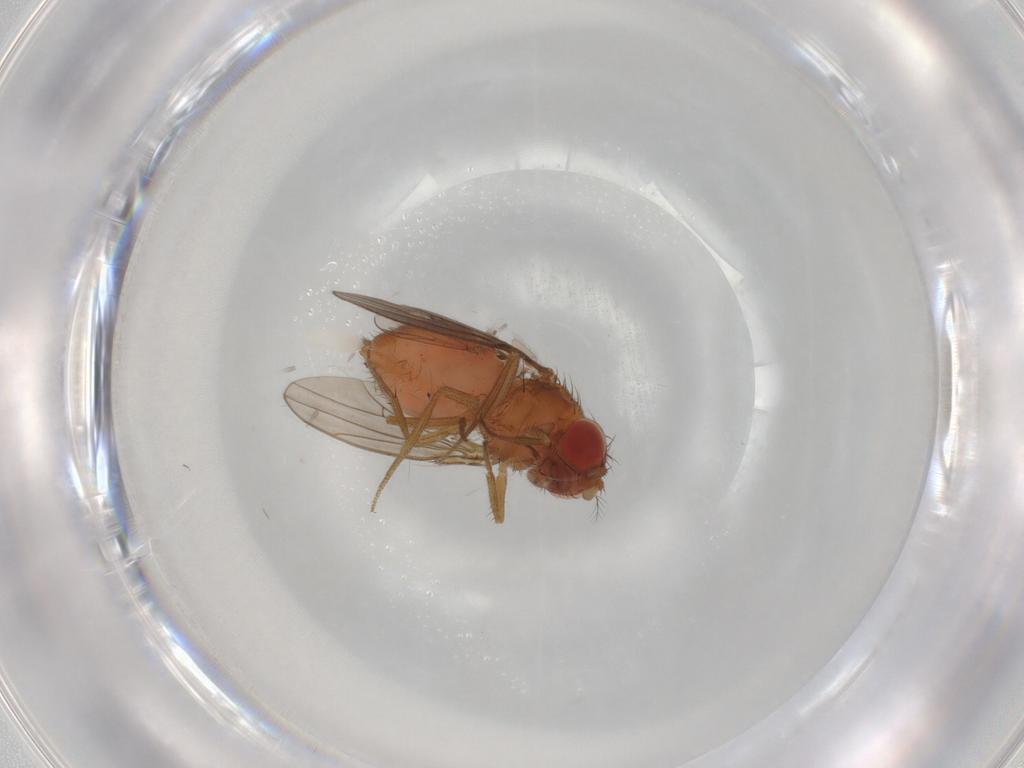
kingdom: Animalia
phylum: Arthropoda
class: Insecta
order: Diptera
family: Drosophilidae
